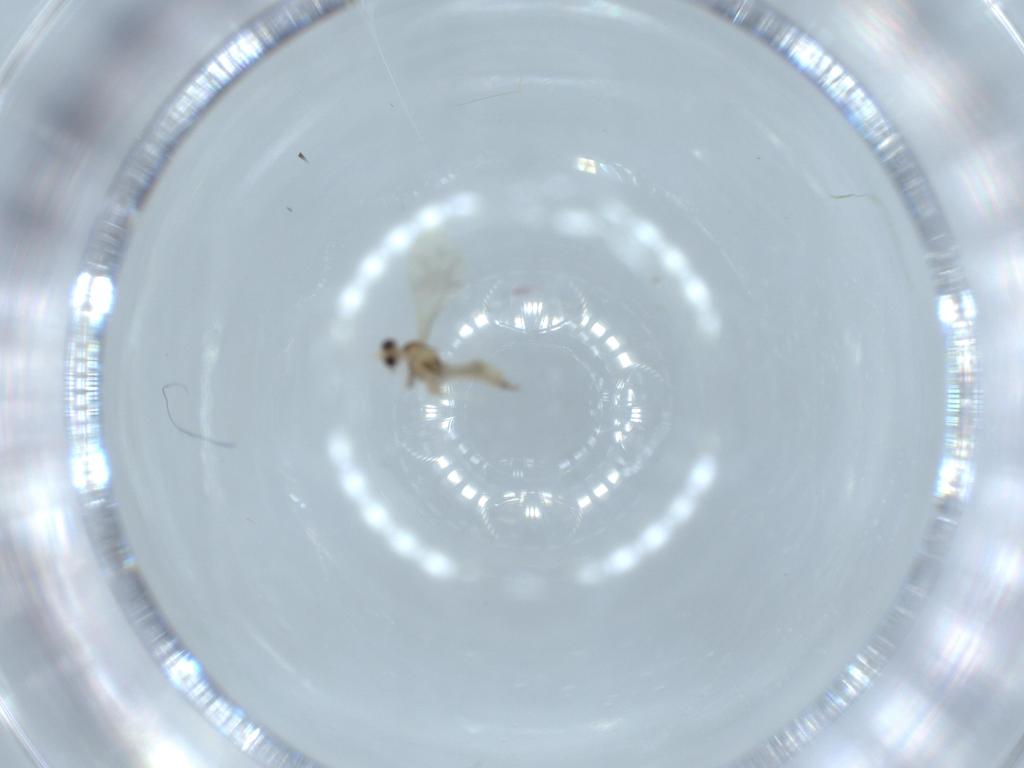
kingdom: Animalia
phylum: Arthropoda
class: Insecta
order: Diptera
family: Cecidomyiidae
